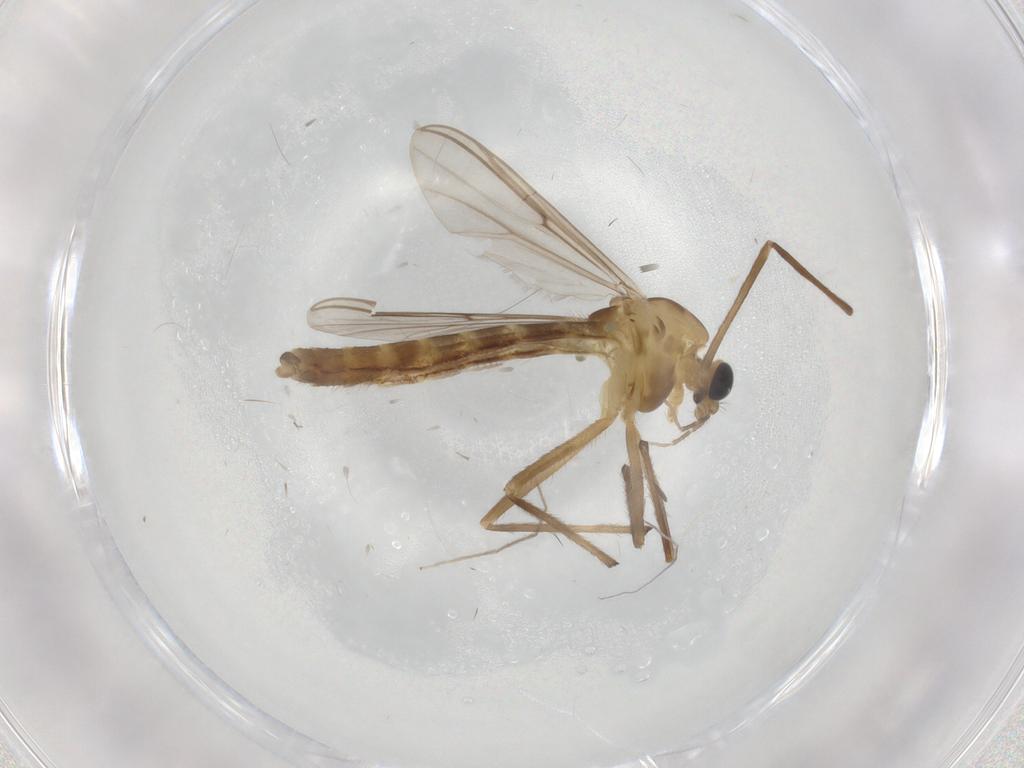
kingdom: Animalia
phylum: Arthropoda
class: Insecta
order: Diptera
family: Chironomidae
